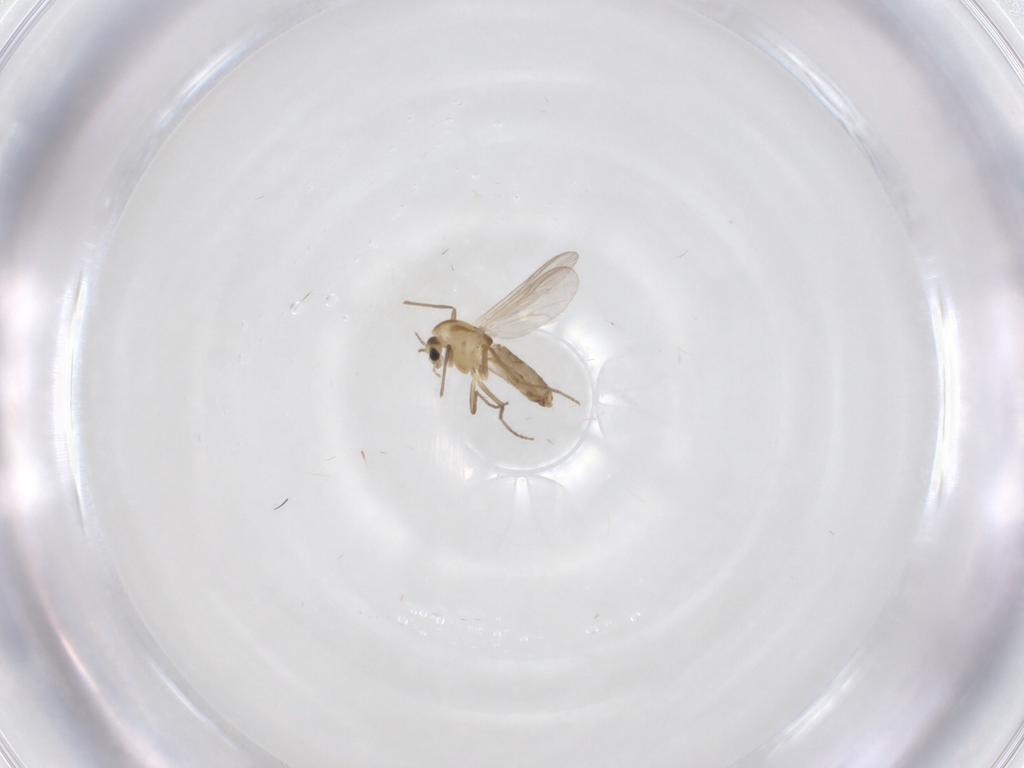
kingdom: Animalia
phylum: Arthropoda
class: Insecta
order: Diptera
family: Chironomidae
